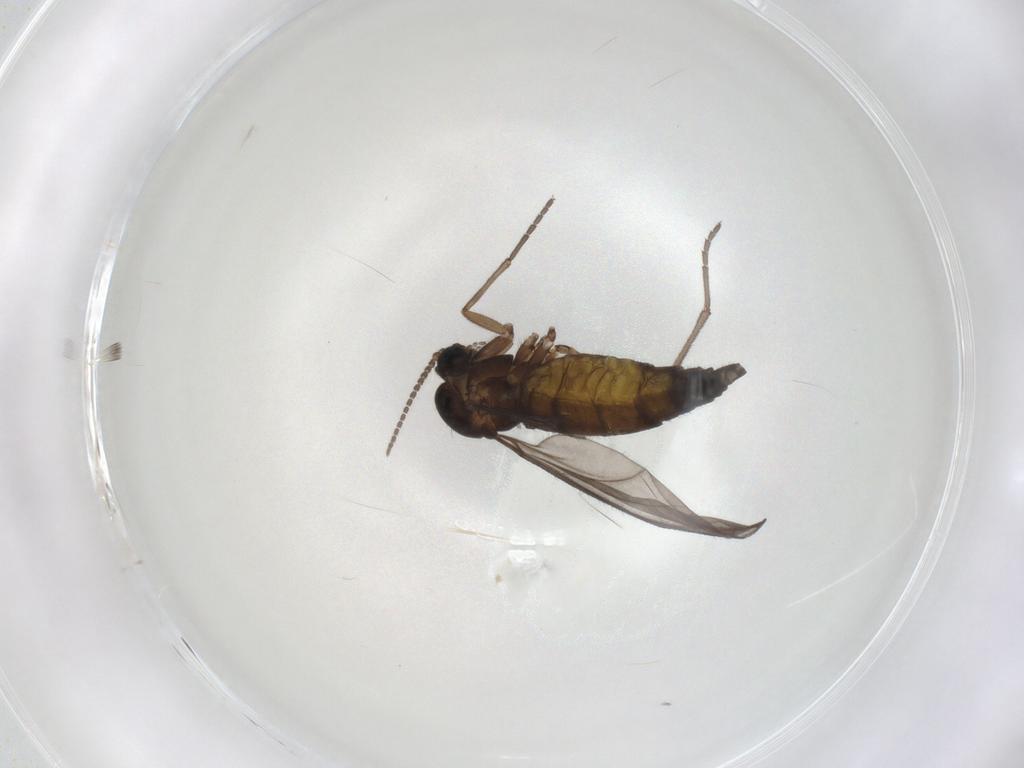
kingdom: Animalia
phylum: Arthropoda
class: Insecta
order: Diptera
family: Sciaridae
